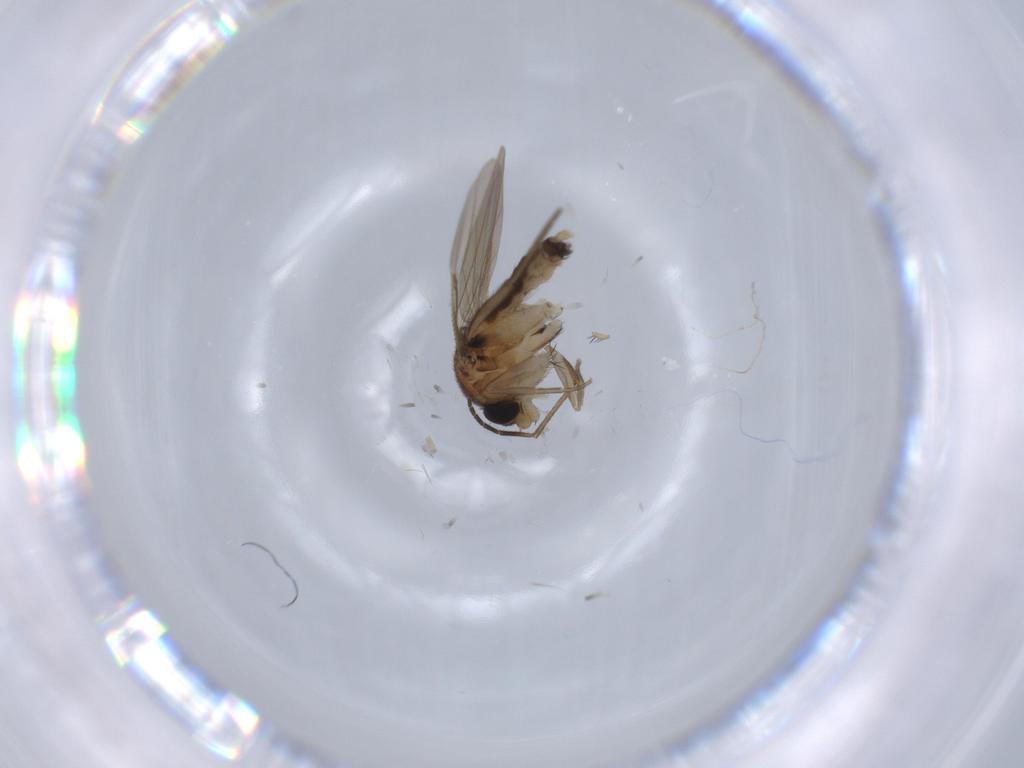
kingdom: Animalia
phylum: Arthropoda
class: Insecta
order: Diptera
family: Phoridae
